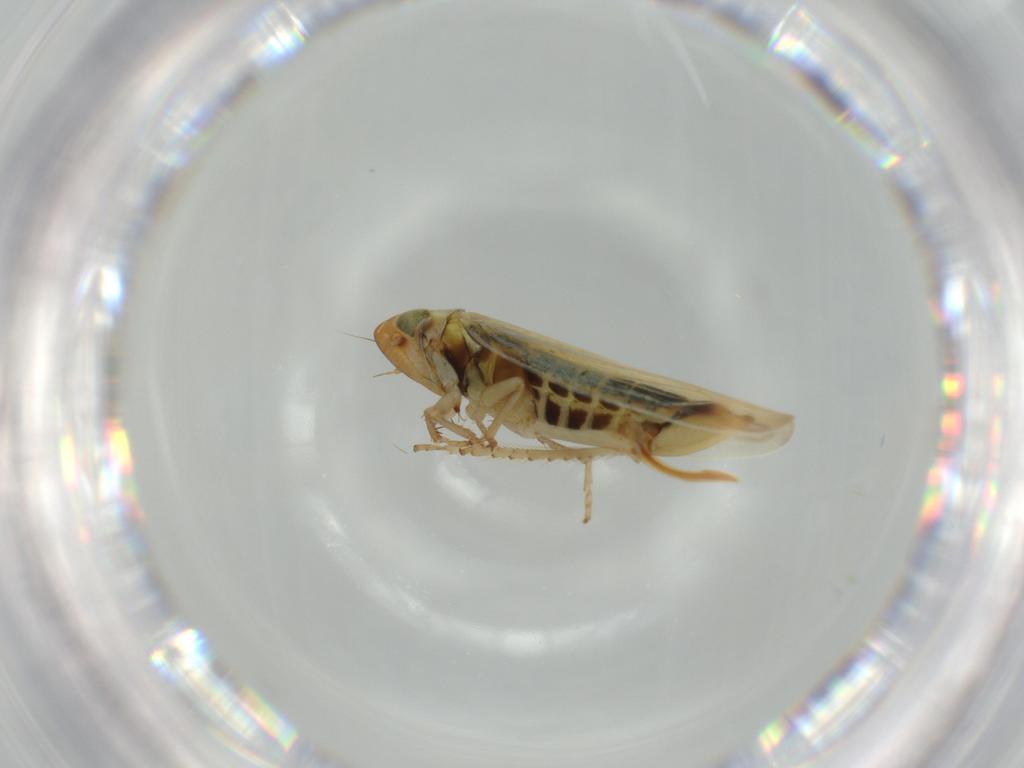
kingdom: Animalia
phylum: Arthropoda
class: Insecta
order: Hemiptera
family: Cicadellidae
